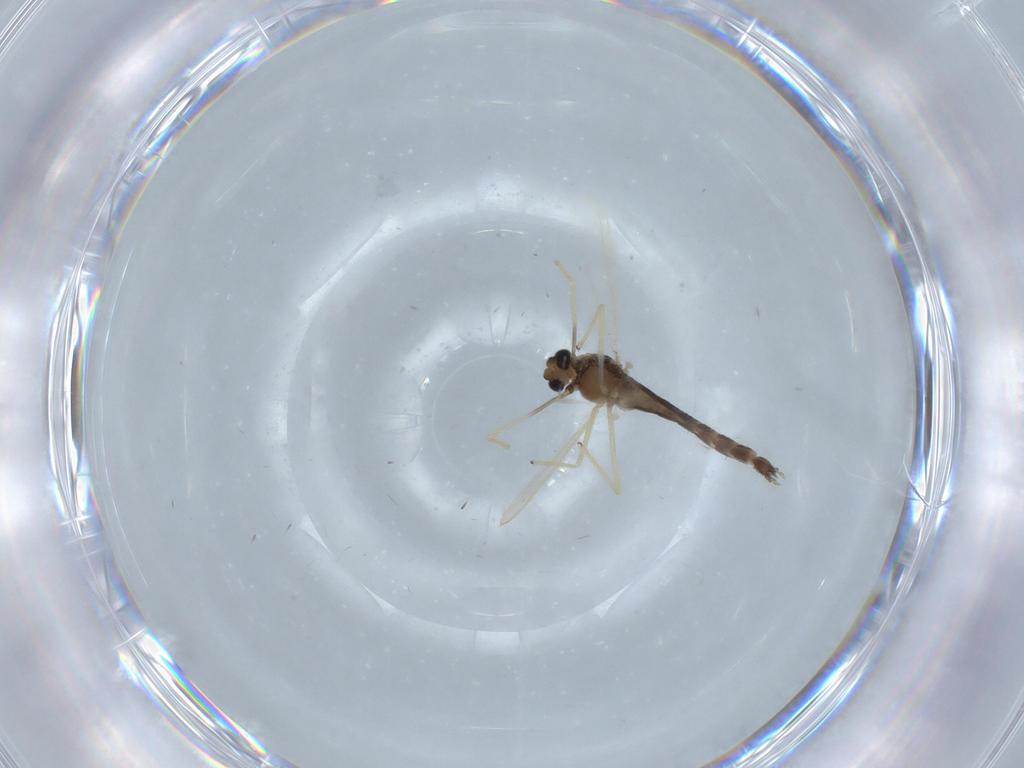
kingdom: Animalia
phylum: Arthropoda
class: Insecta
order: Diptera
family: Chironomidae
